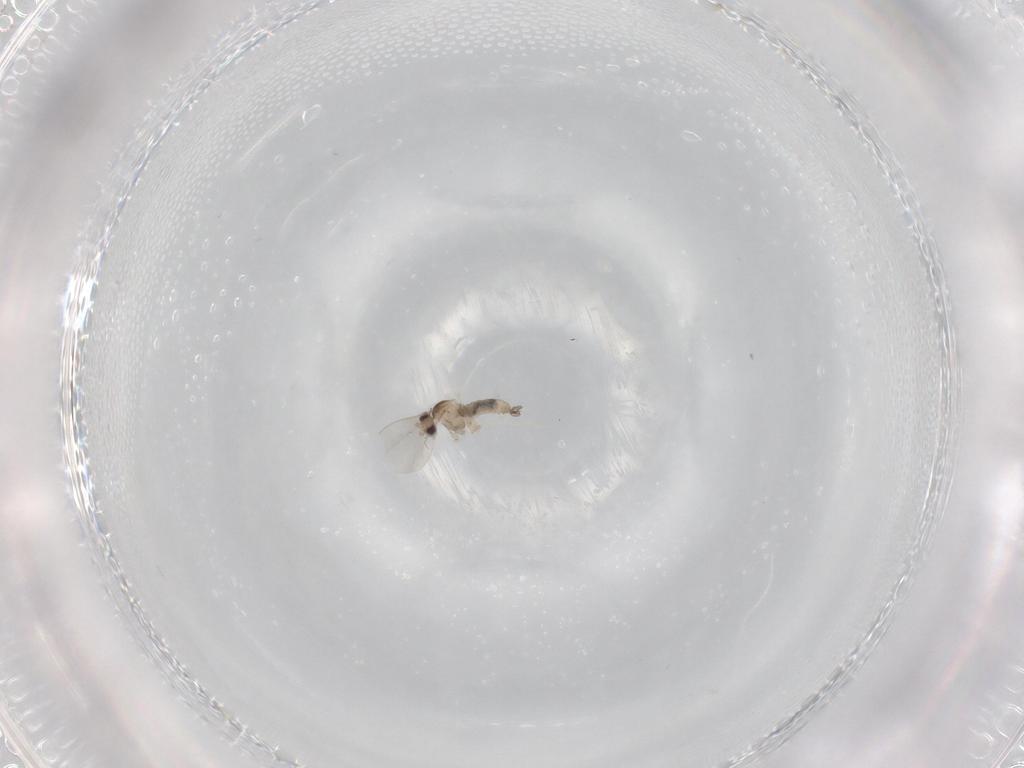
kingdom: Animalia
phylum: Arthropoda
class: Insecta
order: Diptera
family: Cecidomyiidae
